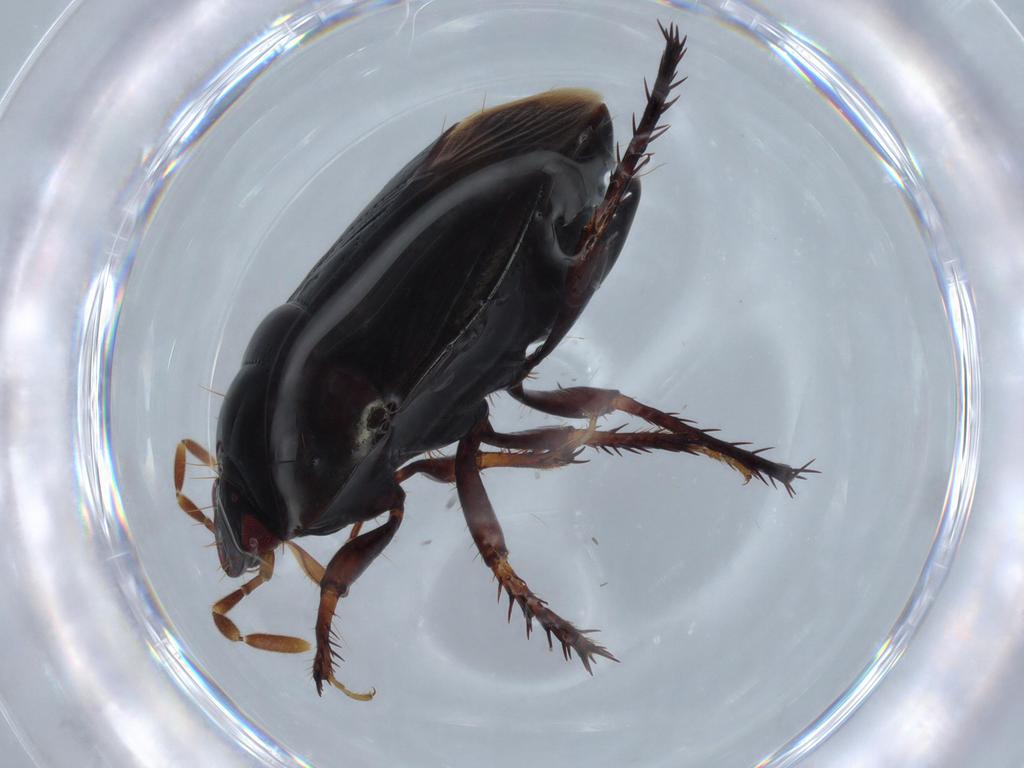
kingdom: Animalia
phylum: Arthropoda
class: Insecta
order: Hemiptera
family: Cydnidae
